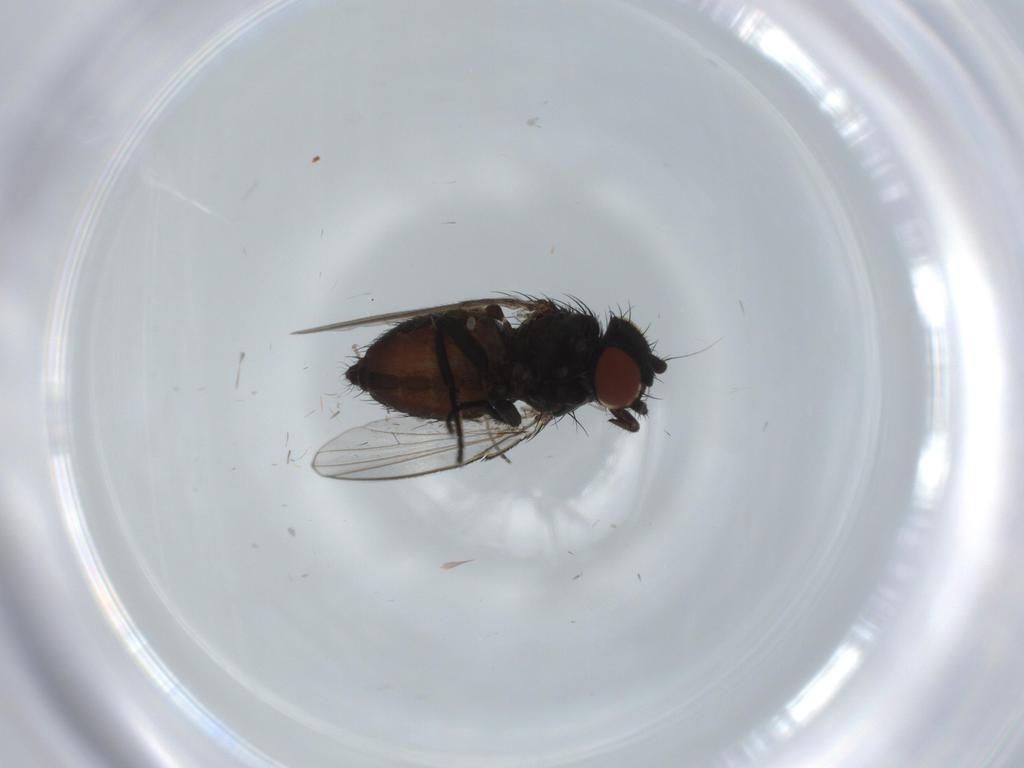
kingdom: Animalia
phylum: Arthropoda
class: Insecta
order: Diptera
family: Milichiidae
